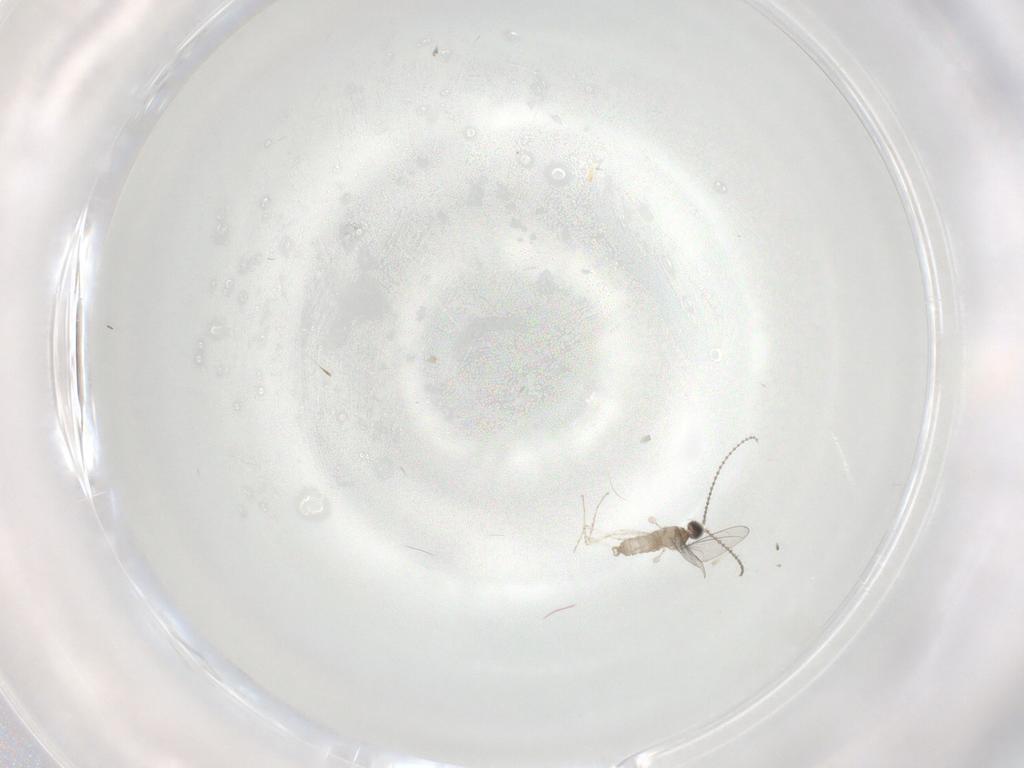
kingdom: Animalia
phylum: Arthropoda
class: Insecta
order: Diptera
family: Cecidomyiidae
